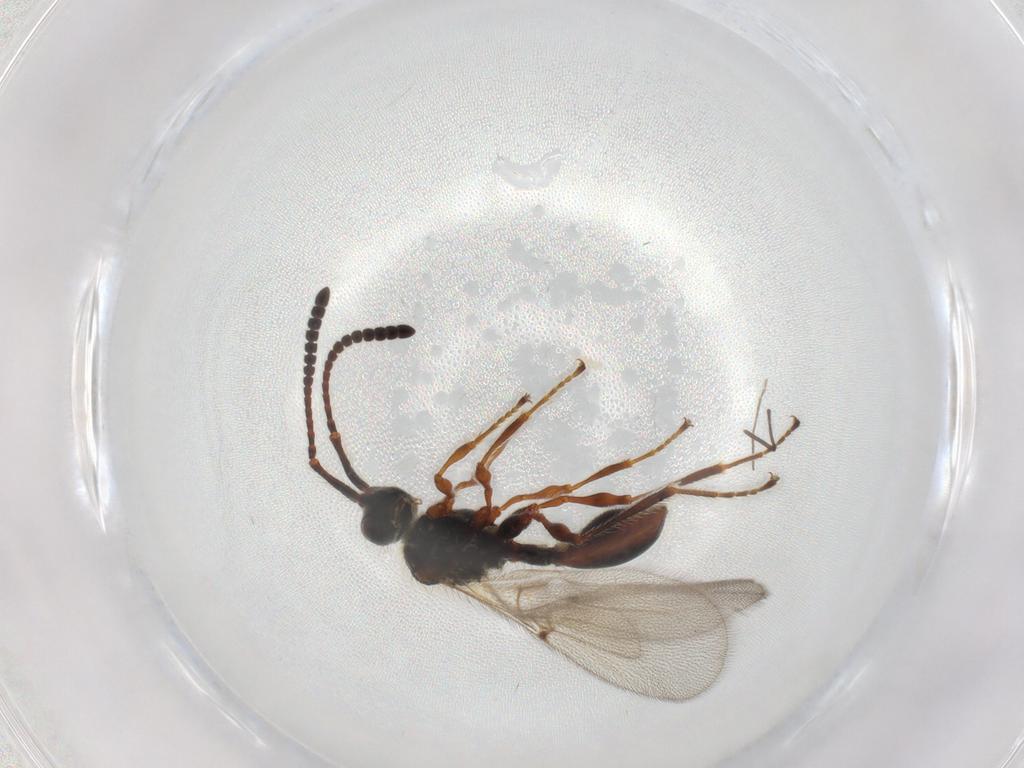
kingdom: Animalia
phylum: Arthropoda
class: Insecta
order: Hymenoptera
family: Diapriidae
